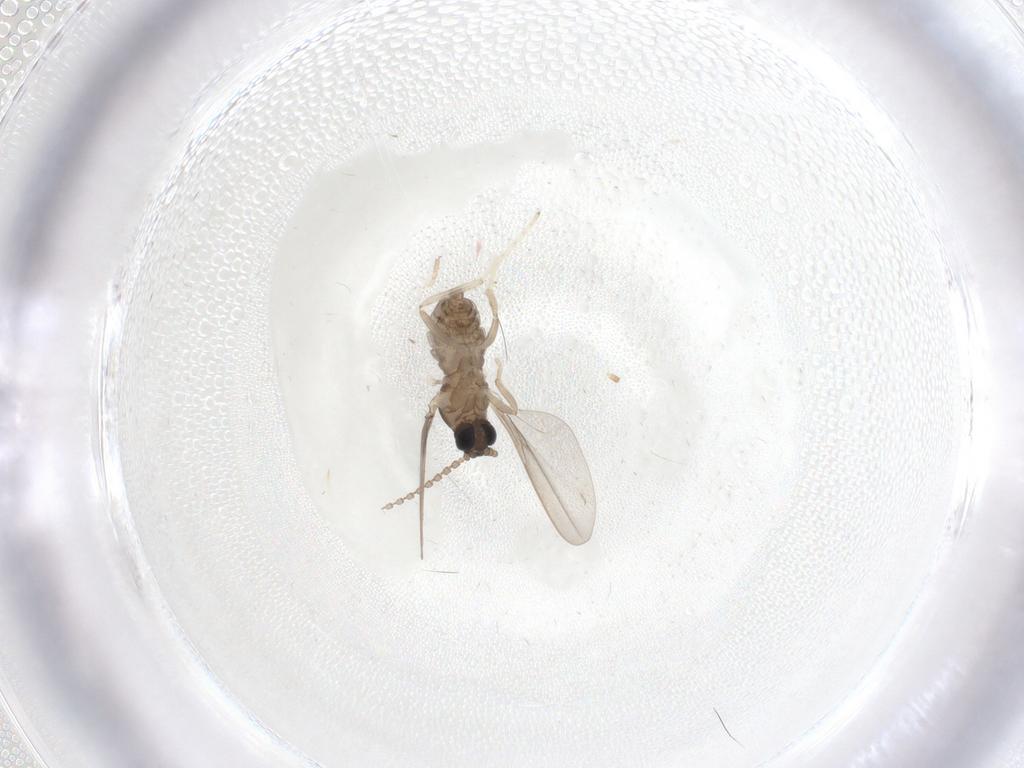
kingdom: Animalia
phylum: Arthropoda
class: Insecta
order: Diptera
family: Cecidomyiidae
